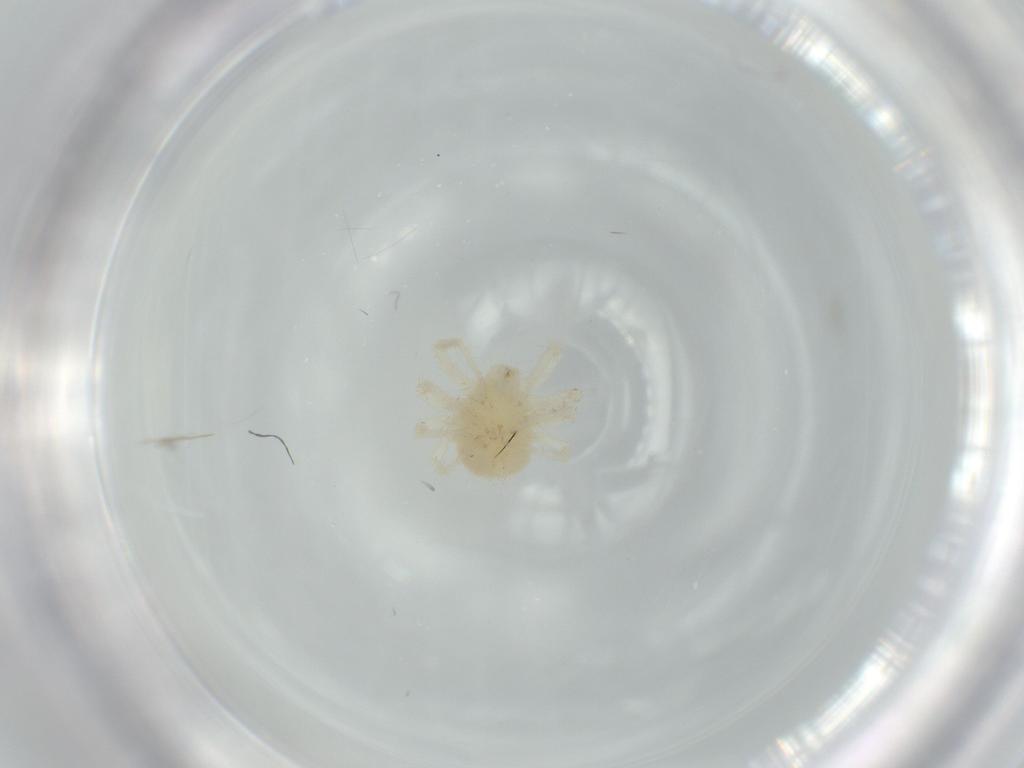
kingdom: Animalia
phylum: Arthropoda
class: Arachnida
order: Trombidiformes
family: Anystidae
